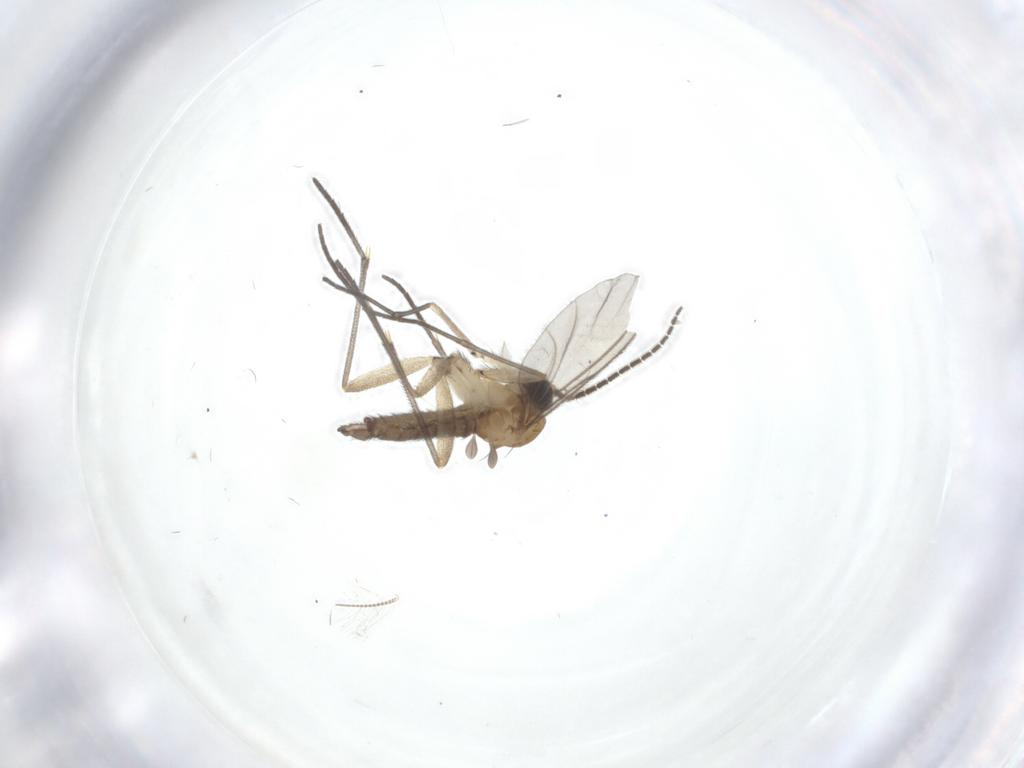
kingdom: Animalia
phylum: Arthropoda
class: Insecta
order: Diptera
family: Sciaridae
